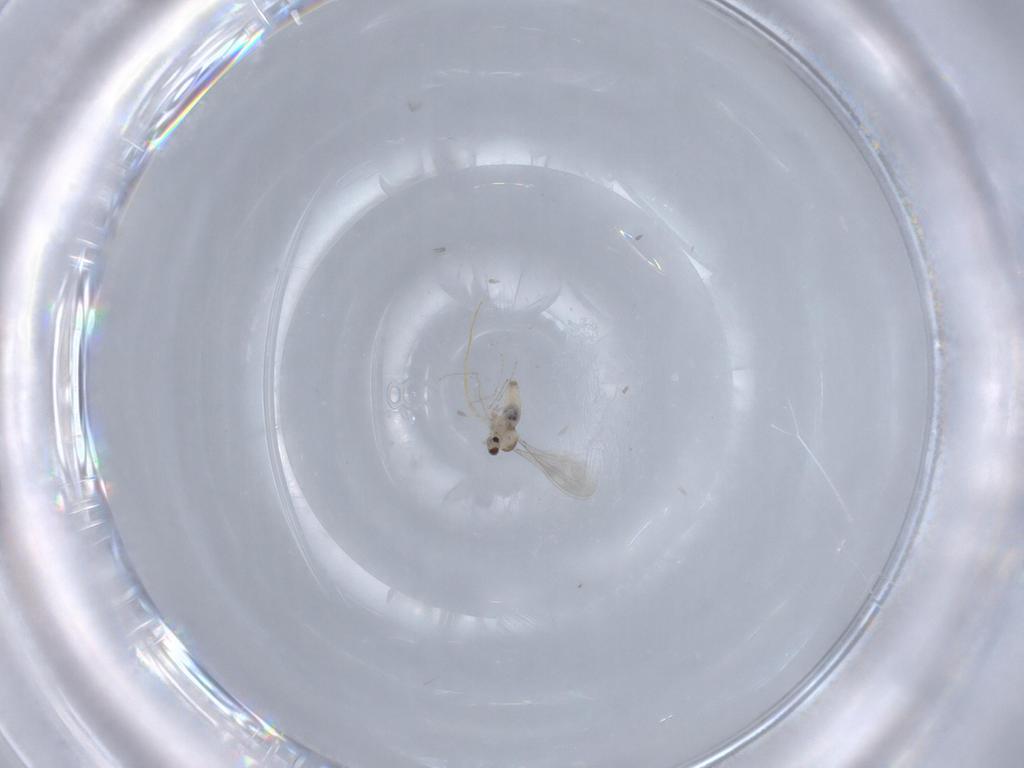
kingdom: Animalia
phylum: Arthropoda
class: Insecta
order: Diptera
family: Cecidomyiidae
